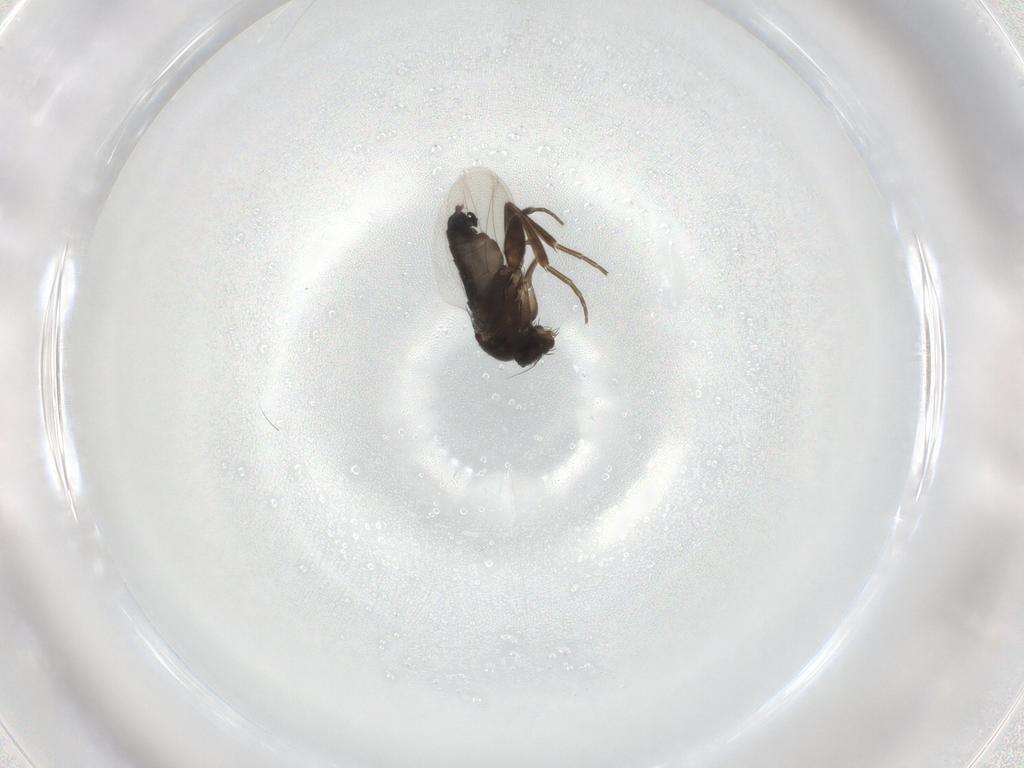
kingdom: Animalia
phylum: Arthropoda
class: Insecta
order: Diptera
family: Phoridae
